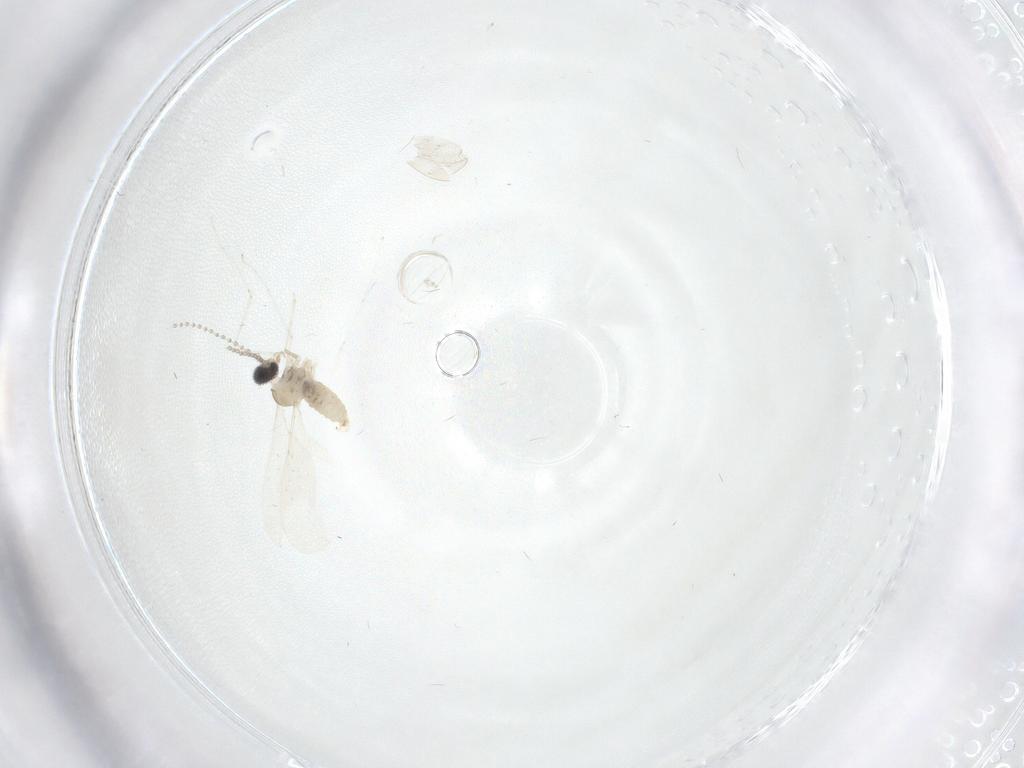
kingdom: Animalia
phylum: Arthropoda
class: Insecta
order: Diptera
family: Cecidomyiidae
